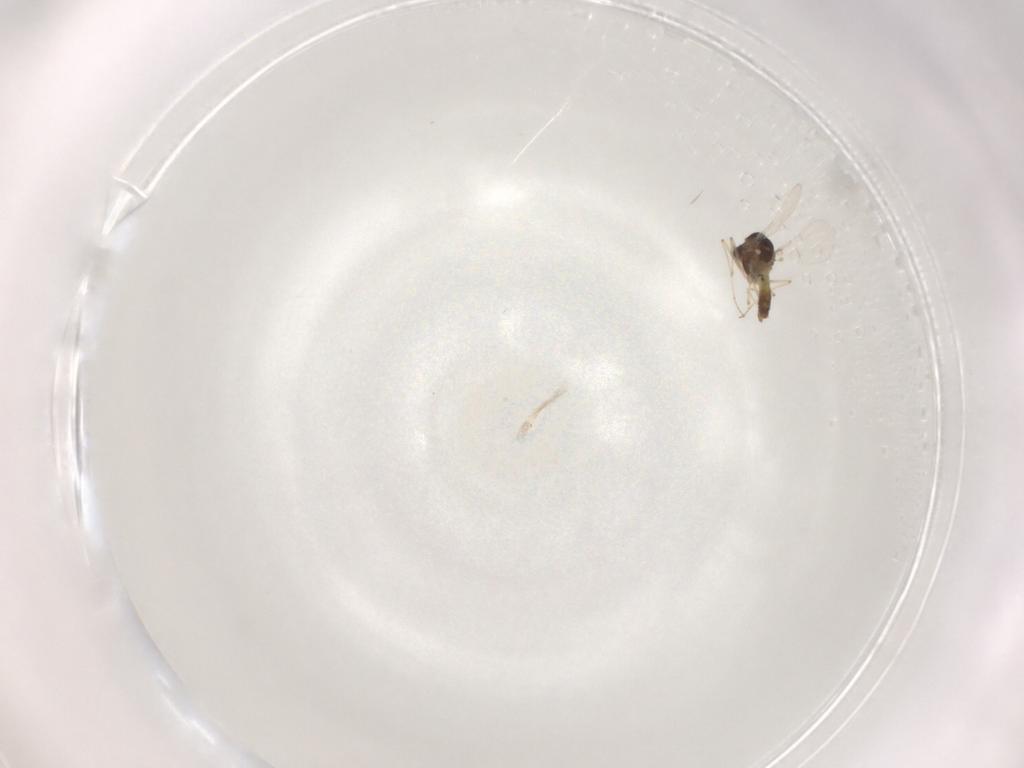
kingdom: Animalia
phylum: Arthropoda
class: Insecta
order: Diptera
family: Chironomidae
